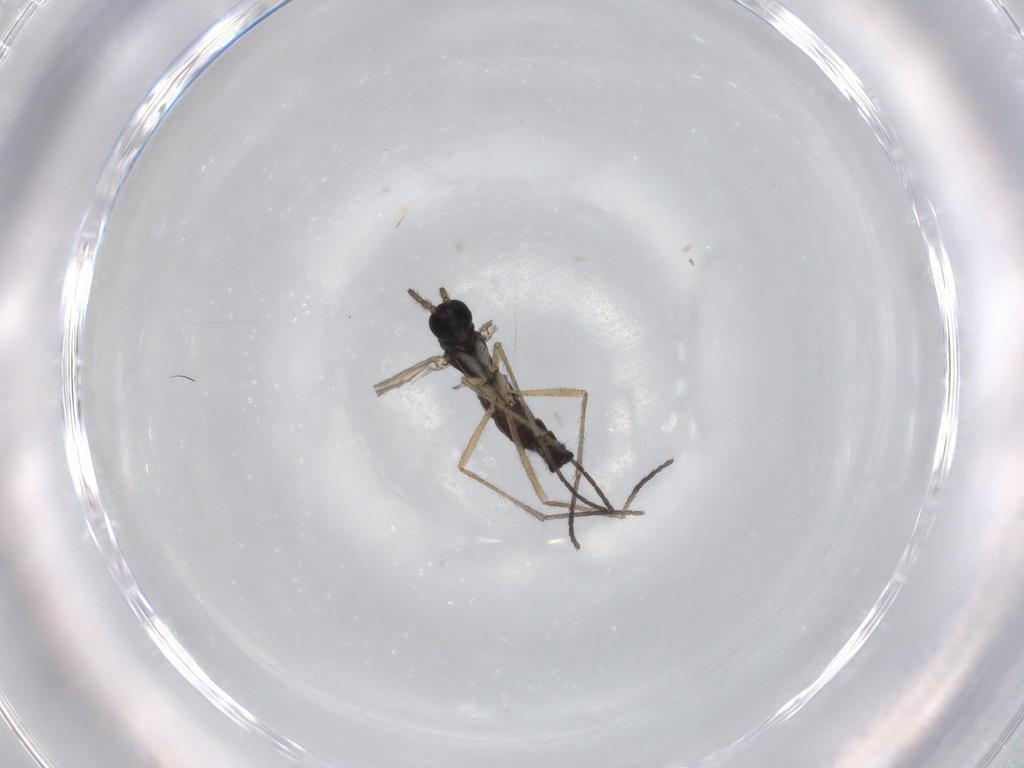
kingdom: Animalia
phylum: Arthropoda
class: Insecta
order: Diptera
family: Sciaridae
